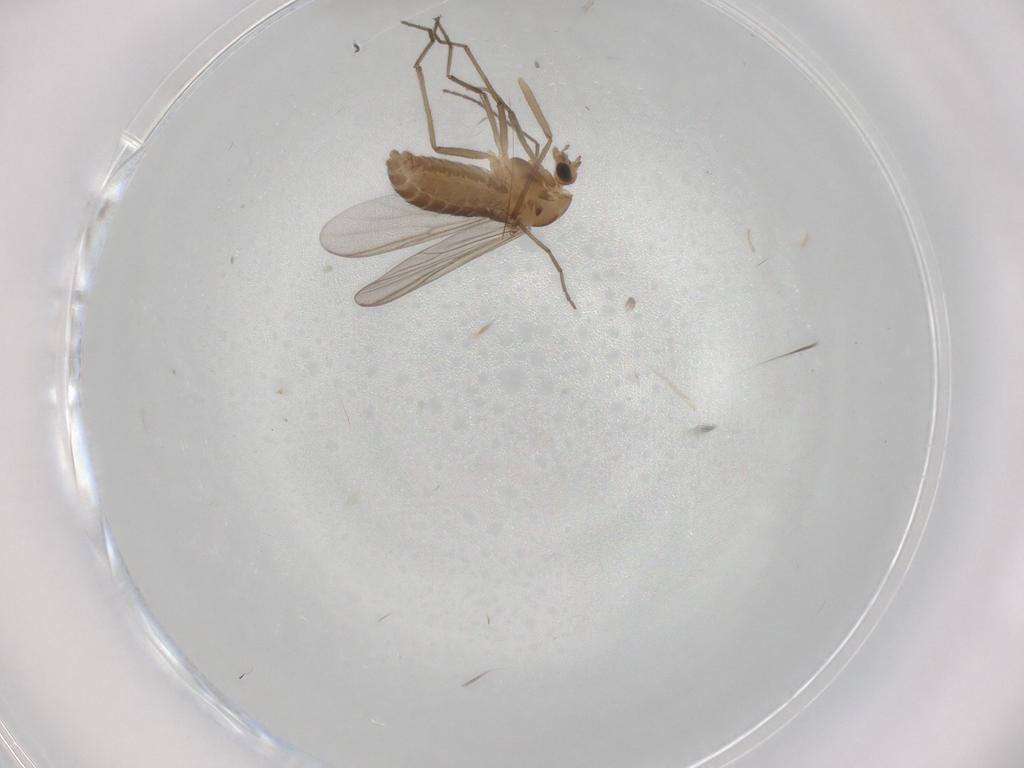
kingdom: Animalia
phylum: Arthropoda
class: Insecta
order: Diptera
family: Chironomidae
